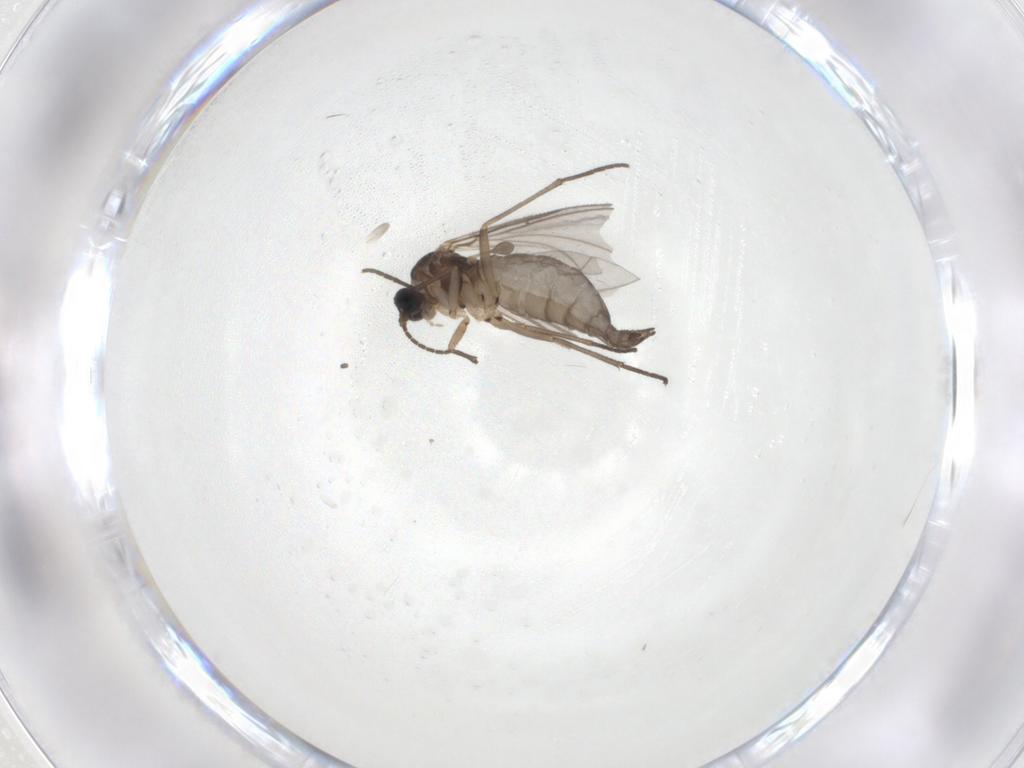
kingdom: Animalia
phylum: Arthropoda
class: Insecta
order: Diptera
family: Sciaridae
